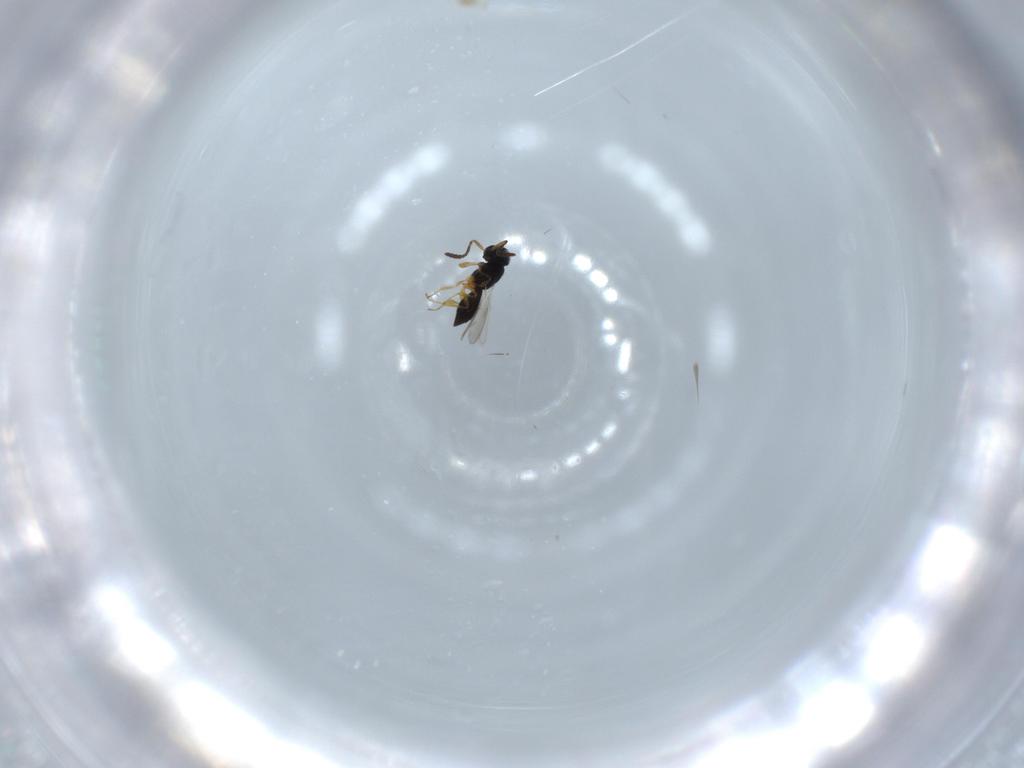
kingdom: Animalia
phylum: Arthropoda
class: Insecta
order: Hymenoptera
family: Scelionidae
